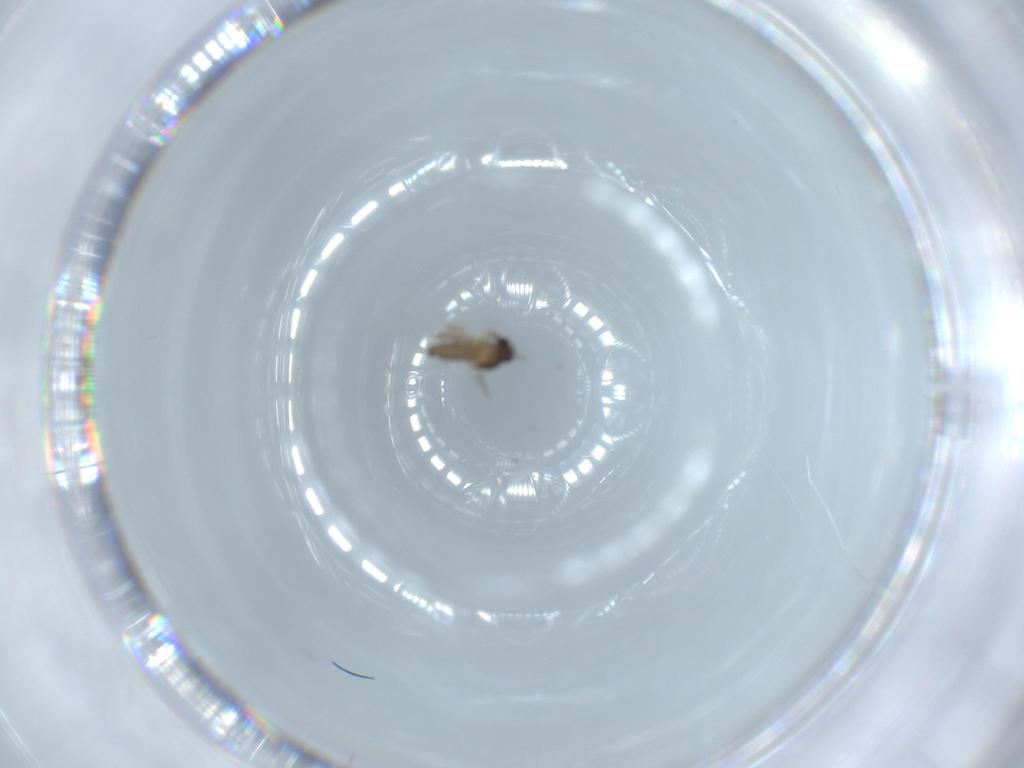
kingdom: Animalia
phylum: Arthropoda
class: Insecta
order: Diptera
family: Cecidomyiidae
